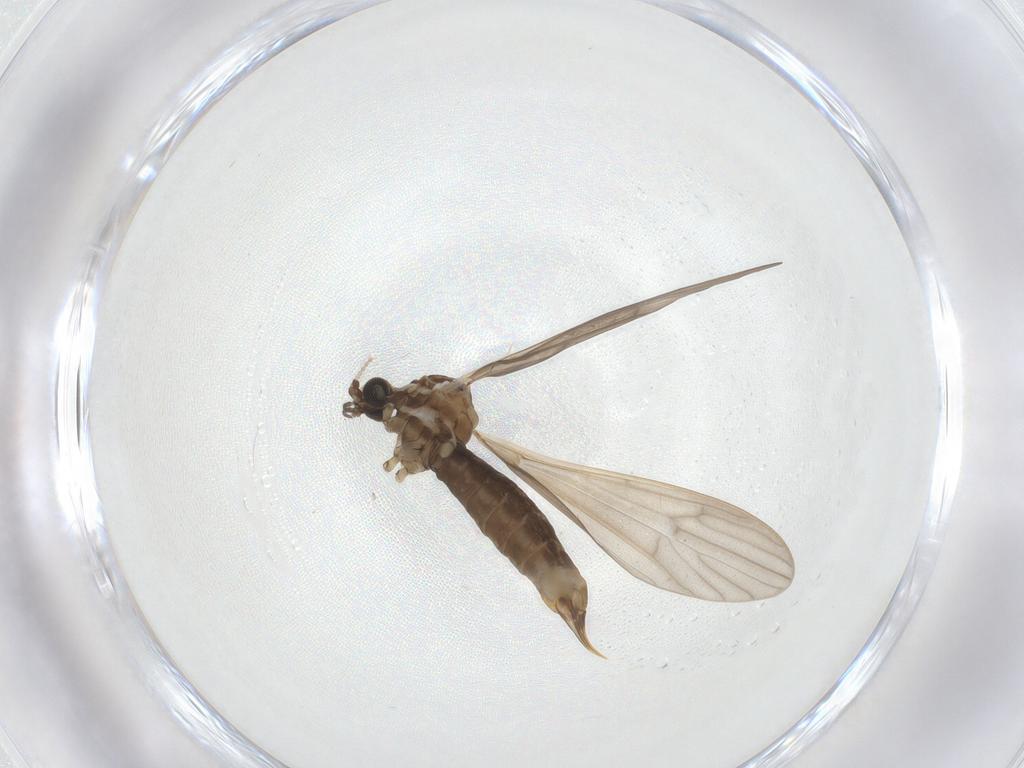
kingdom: Animalia
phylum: Arthropoda
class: Insecta
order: Diptera
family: Limoniidae
